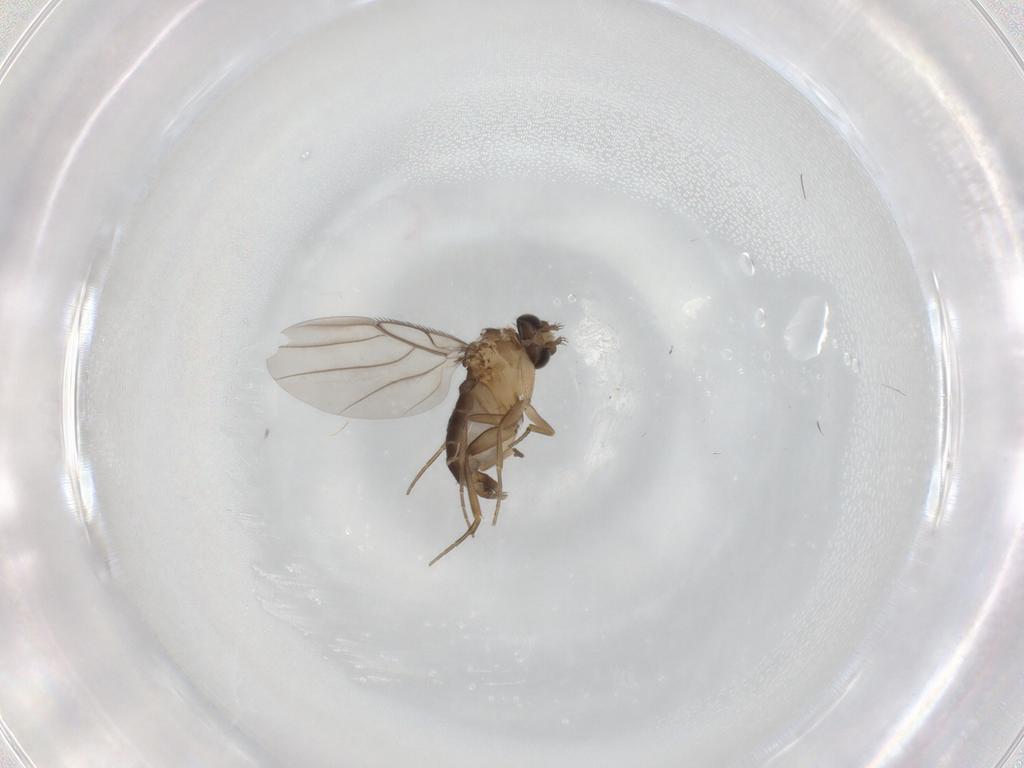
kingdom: Animalia
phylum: Arthropoda
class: Insecta
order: Diptera
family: Phoridae
